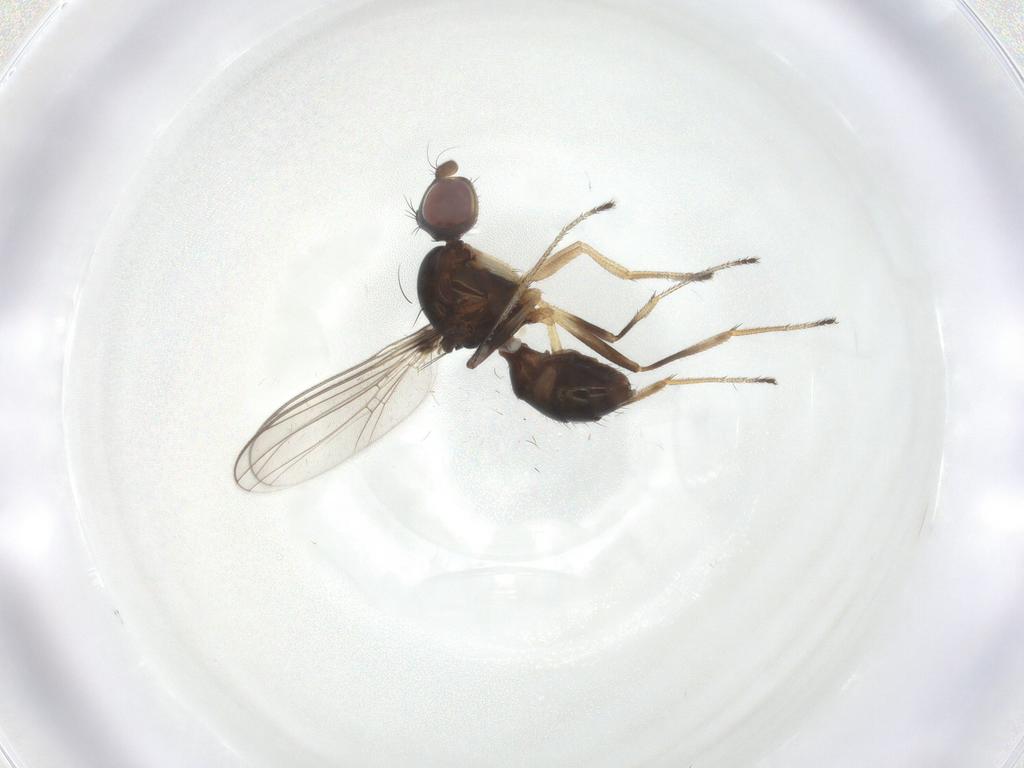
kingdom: Animalia
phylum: Arthropoda
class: Insecta
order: Diptera
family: Sepsidae
